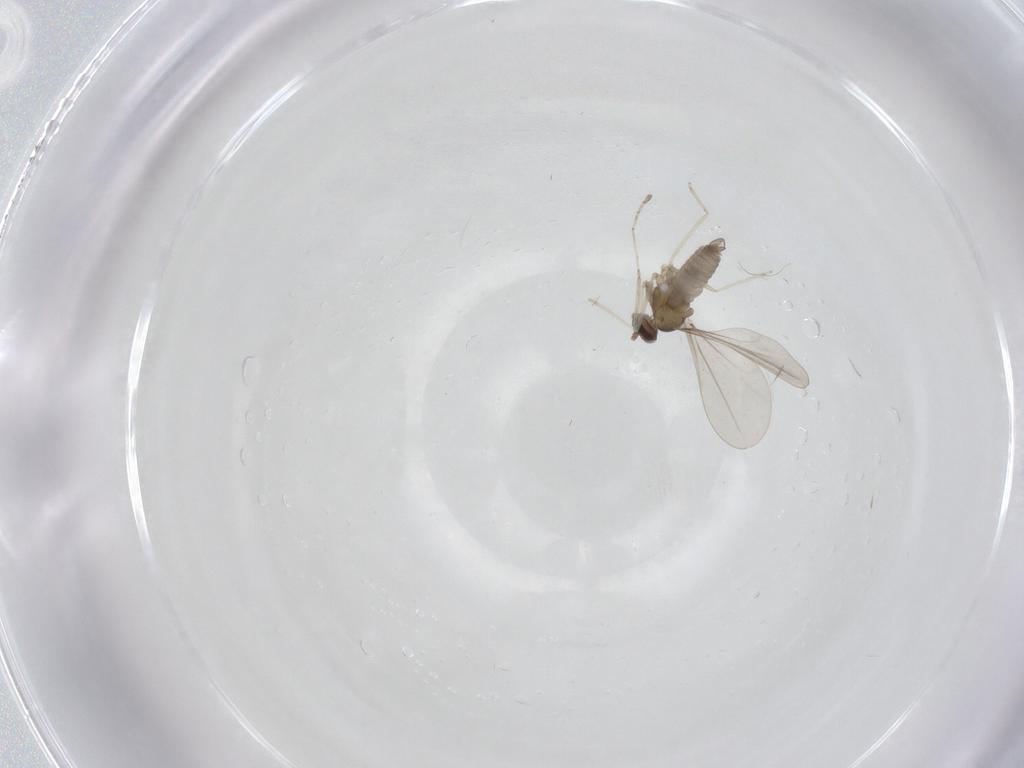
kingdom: Animalia
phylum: Arthropoda
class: Insecta
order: Diptera
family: Cecidomyiidae
